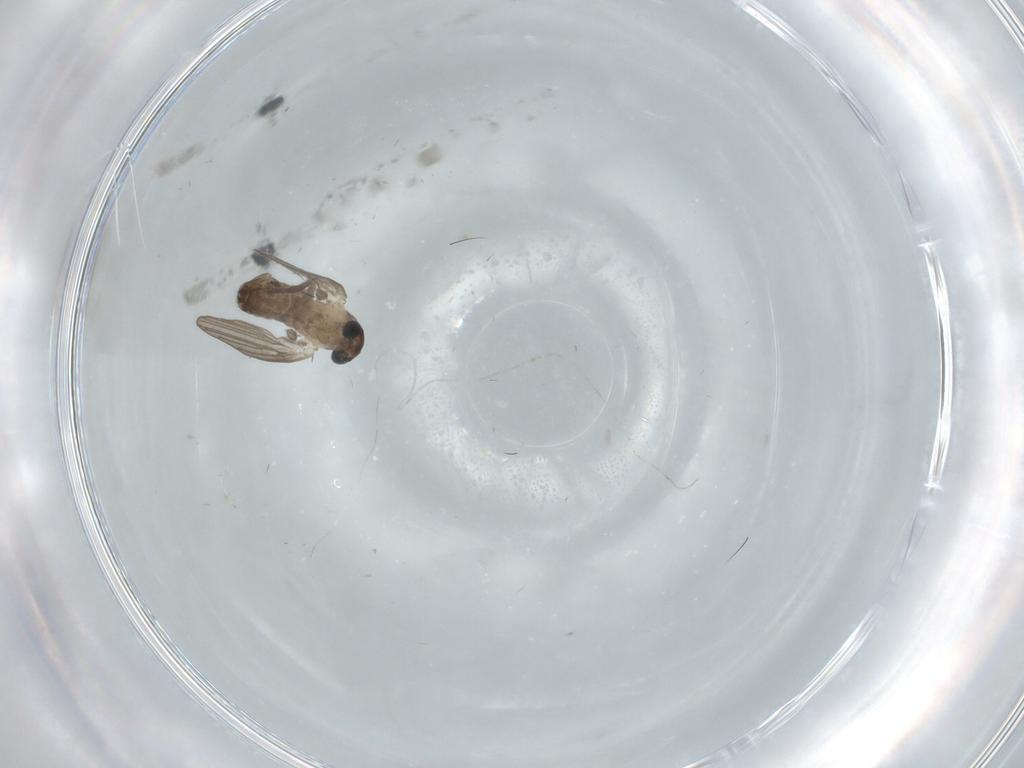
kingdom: Animalia
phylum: Arthropoda
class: Insecta
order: Diptera
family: Chironomidae
